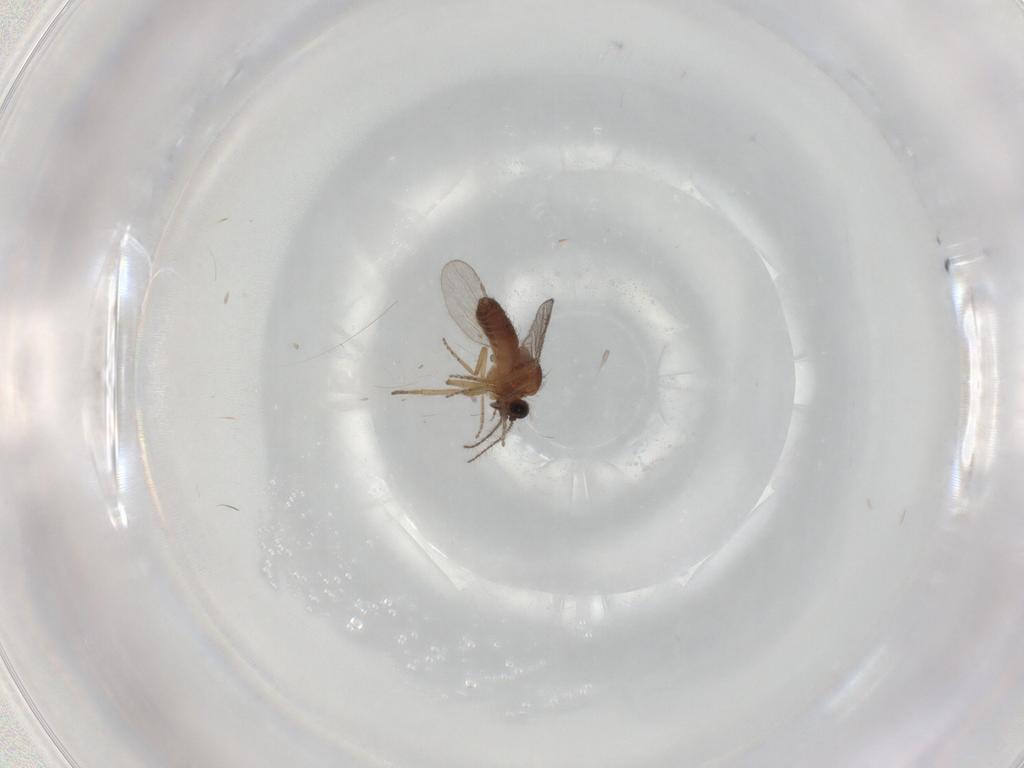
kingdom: Animalia
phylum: Arthropoda
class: Insecta
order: Diptera
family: Ceratopogonidae
